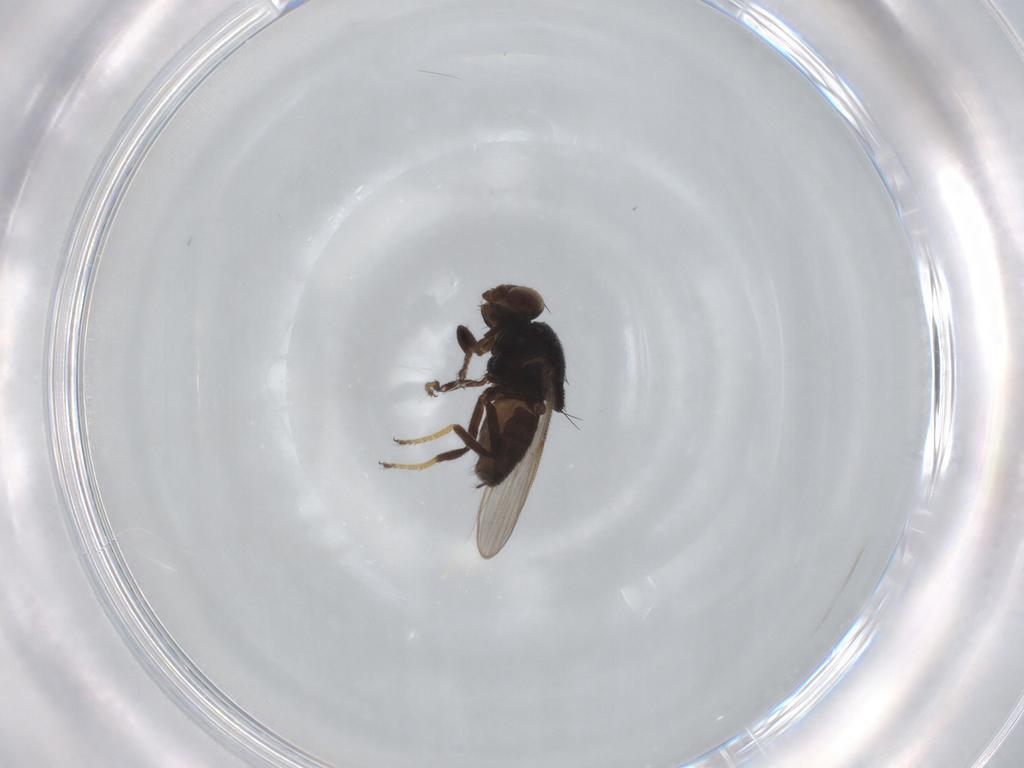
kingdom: Animalia
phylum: Arthropoda
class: Insecta
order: Diptera
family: Chloropidae
